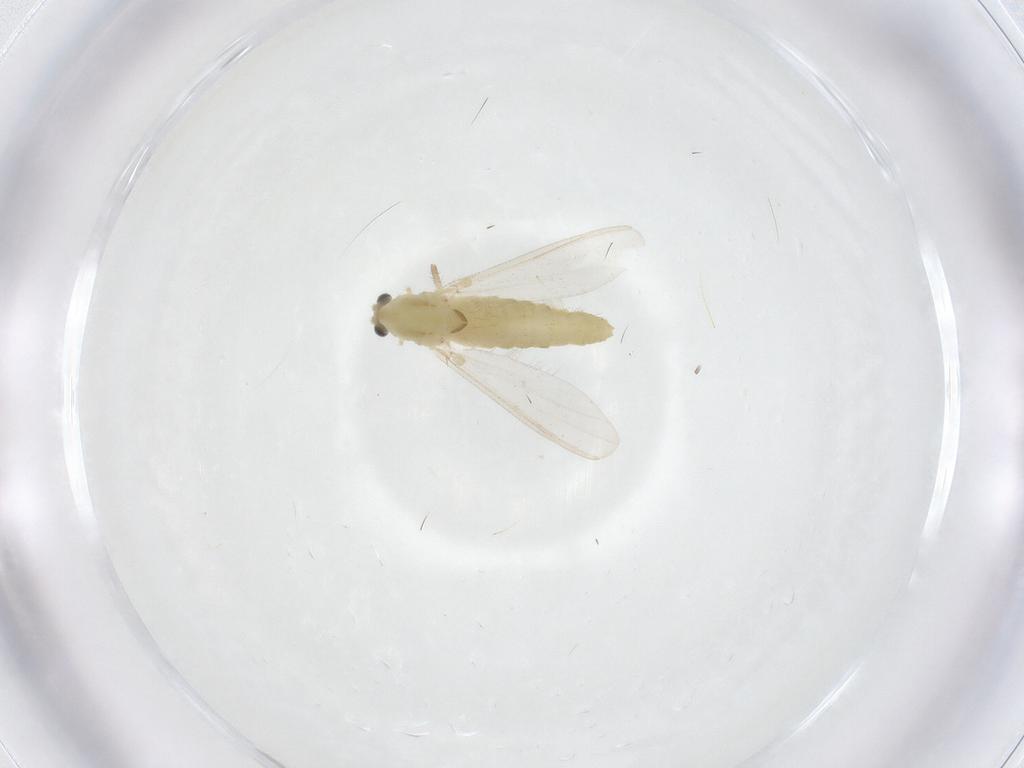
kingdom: Animalia
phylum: Arthropoda
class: Insecta
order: Diptera
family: Chironomidae
